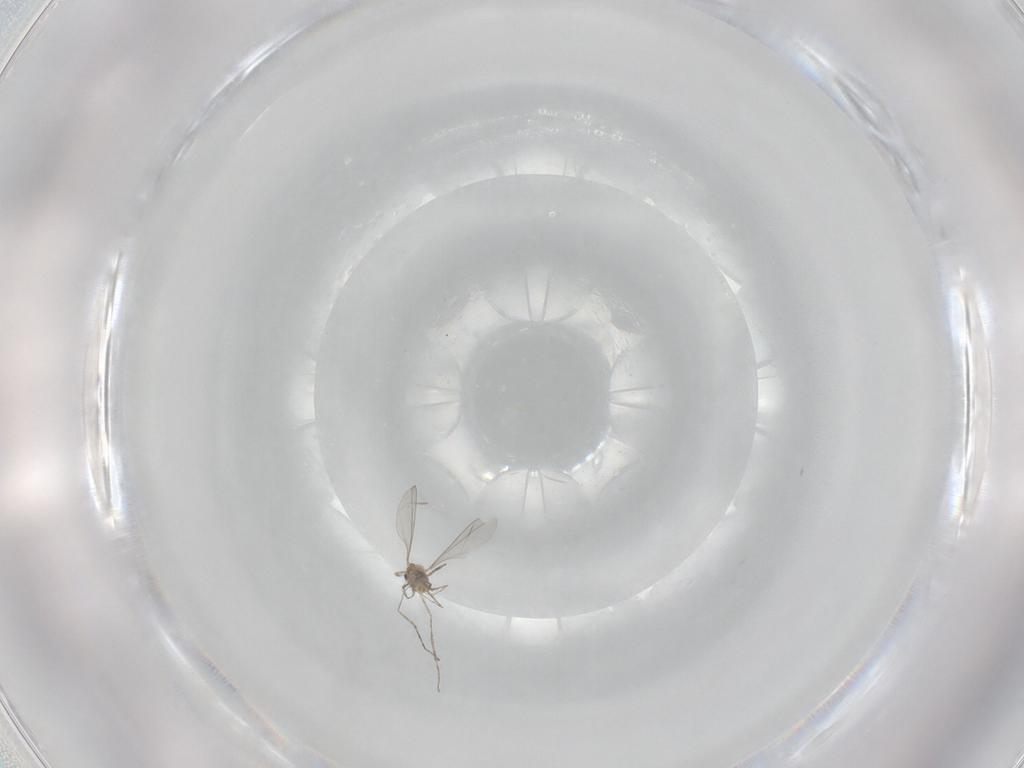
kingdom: Animalia
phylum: Arthropoda
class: Insecta
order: Diptera
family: Cecidomyiidae
